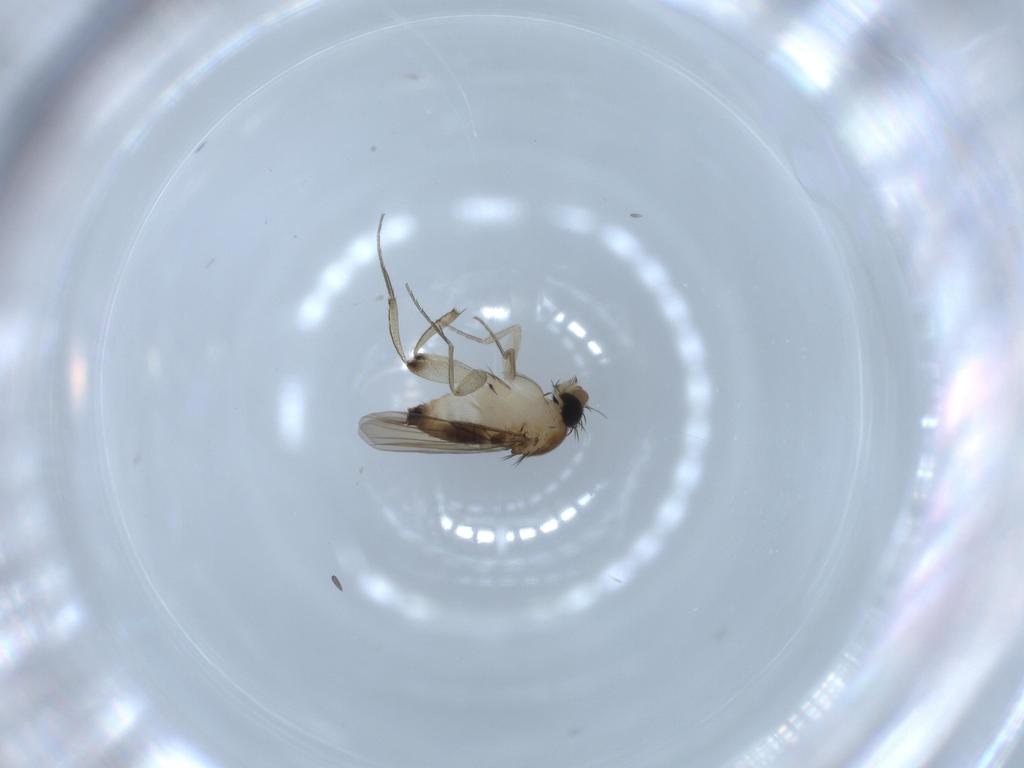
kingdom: Animalia
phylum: Arthropoda
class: Insecta
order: Diptera
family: Phoridae
